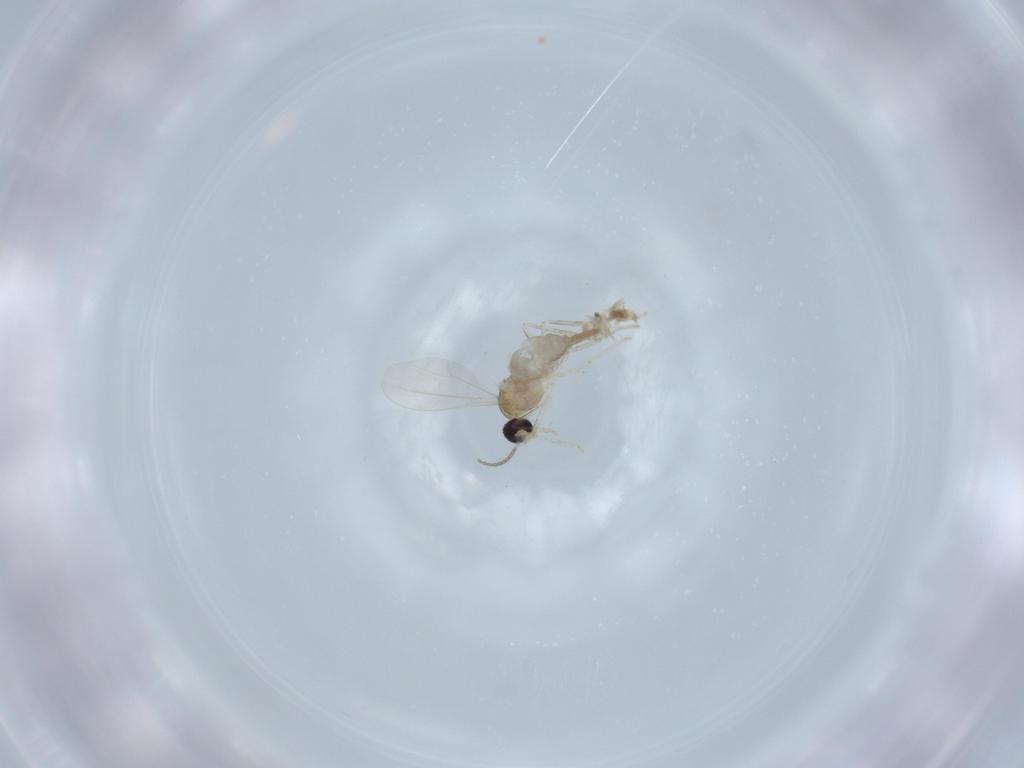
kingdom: Animalia
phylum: Arthropoda
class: Insecta
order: Diptera
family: Cecidomyiidae
